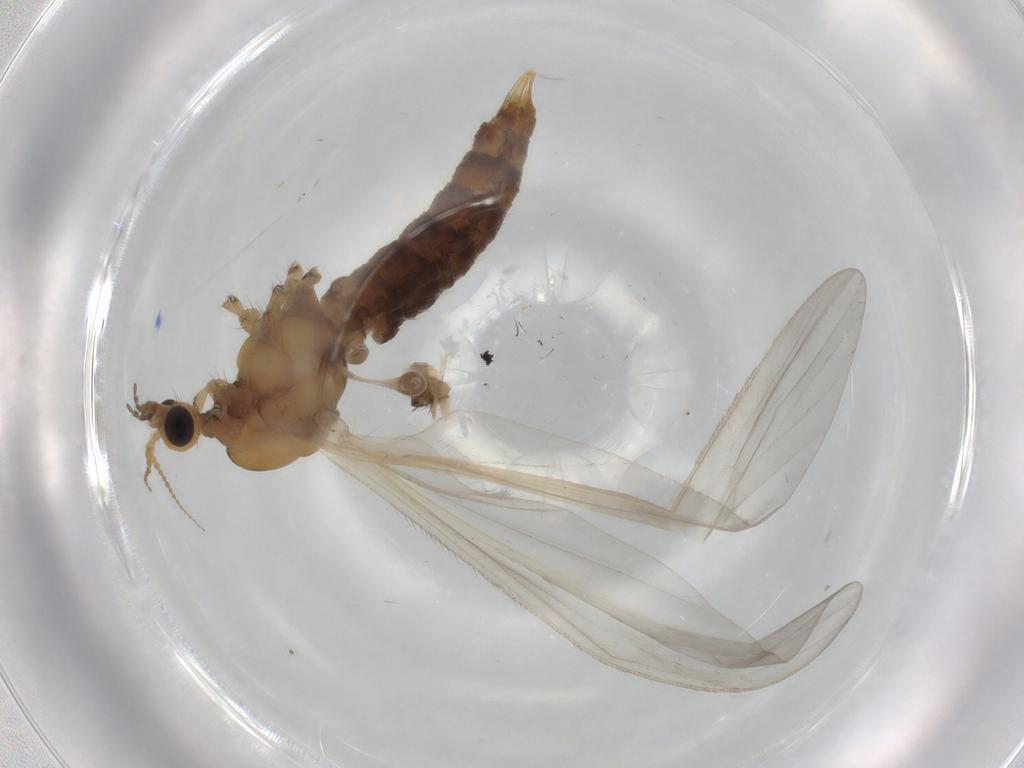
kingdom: Animalia
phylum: Arthropoda
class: Insecta
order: Diptera
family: Limoniidae
